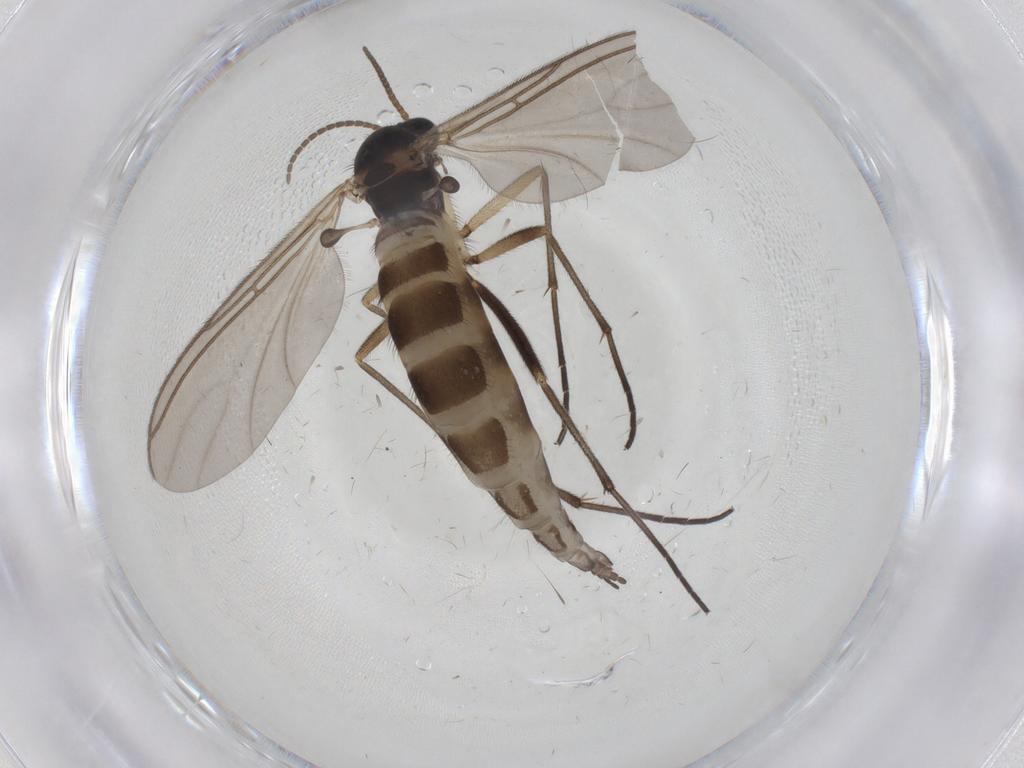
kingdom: Animalia
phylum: Arthropoda
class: Insecta
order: Diptera
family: Sciaridae
